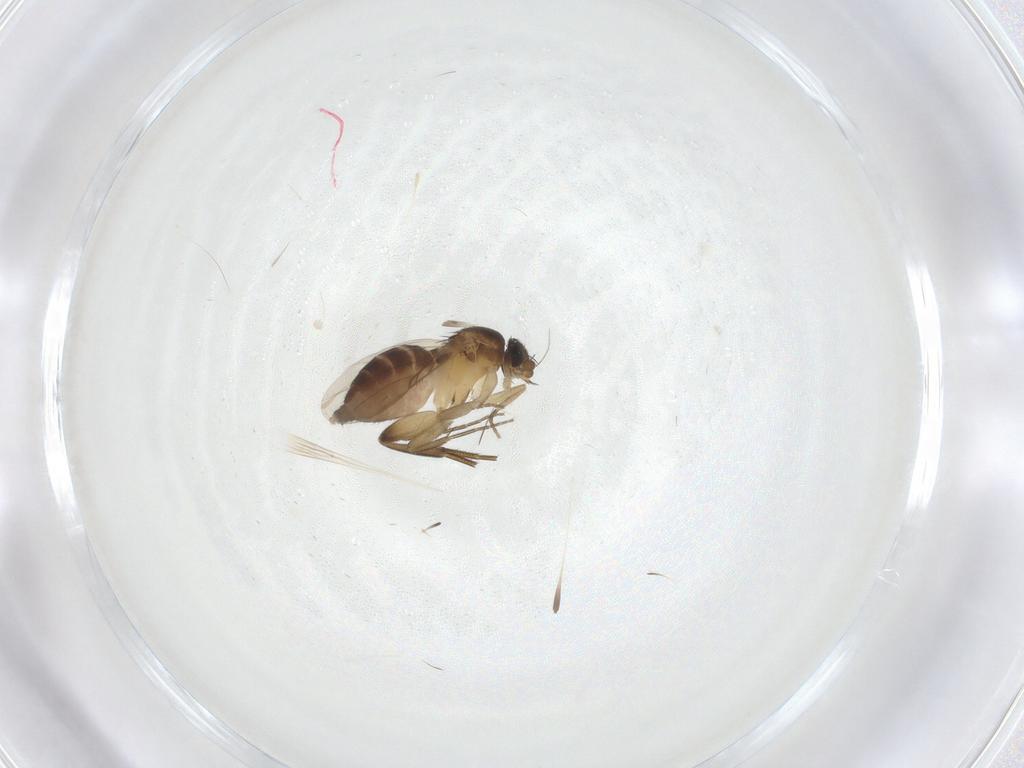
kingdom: Animalia
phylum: Arthropoda
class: Insecta
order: Diptera
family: Phoridae
